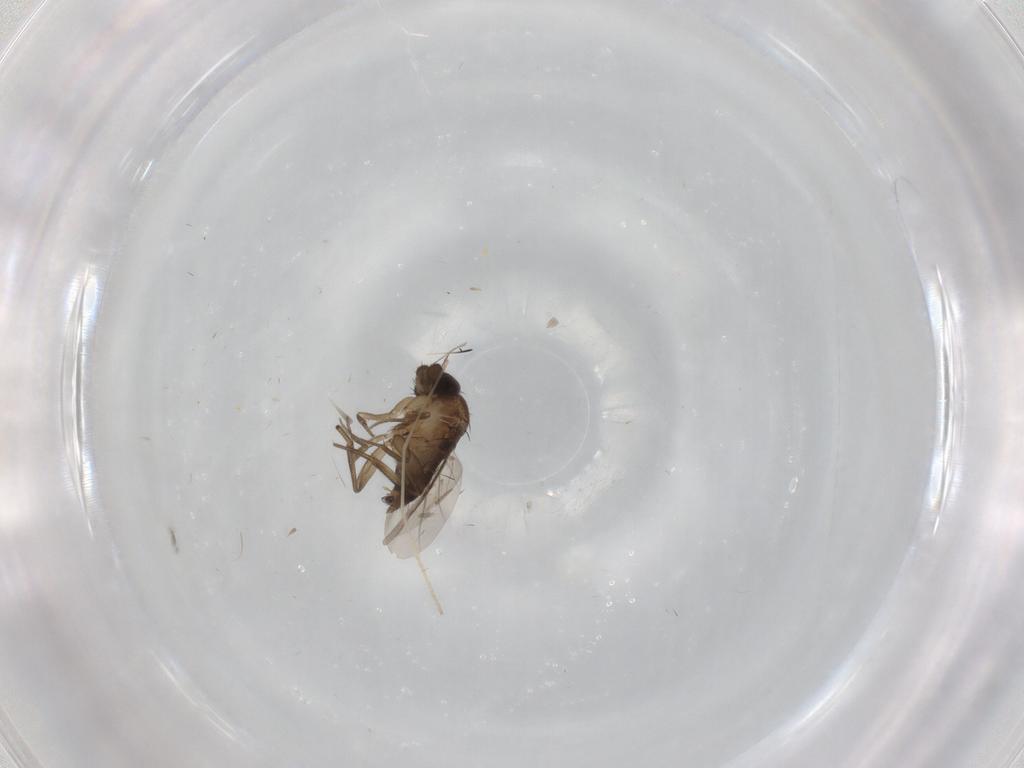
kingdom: Animalia
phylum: Arthropoda
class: Insecta
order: Diptera
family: Phoridae
